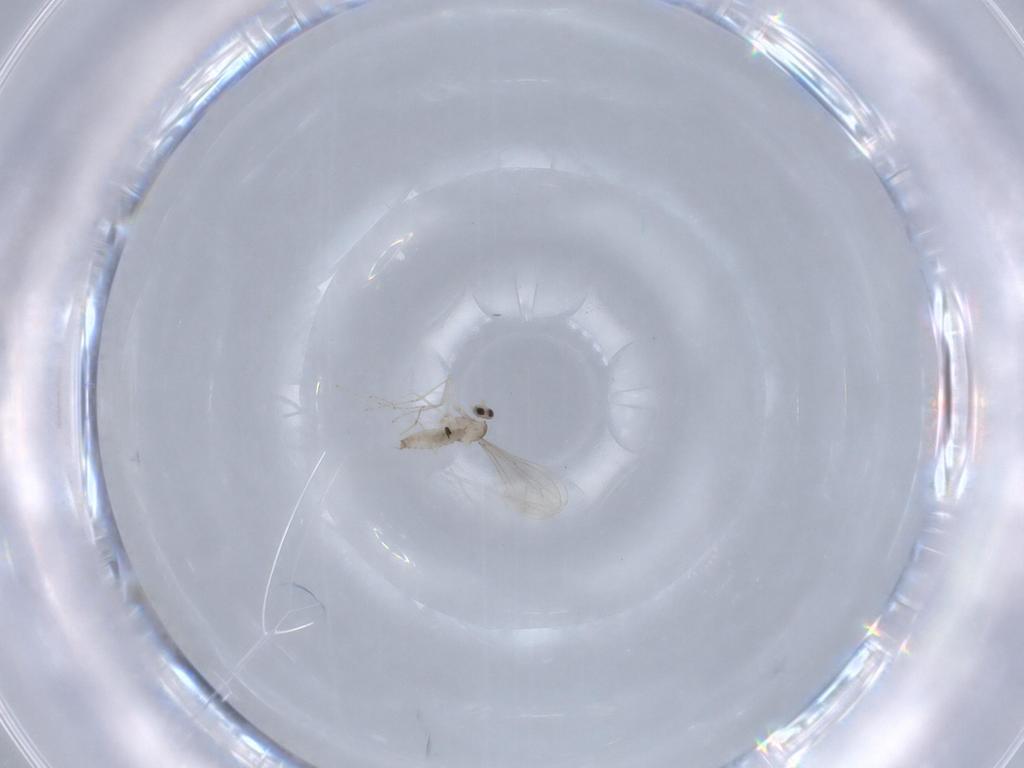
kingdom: Animalia
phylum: Arthropoda
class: Insecta
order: Diptera
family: Cecidomyiidae
